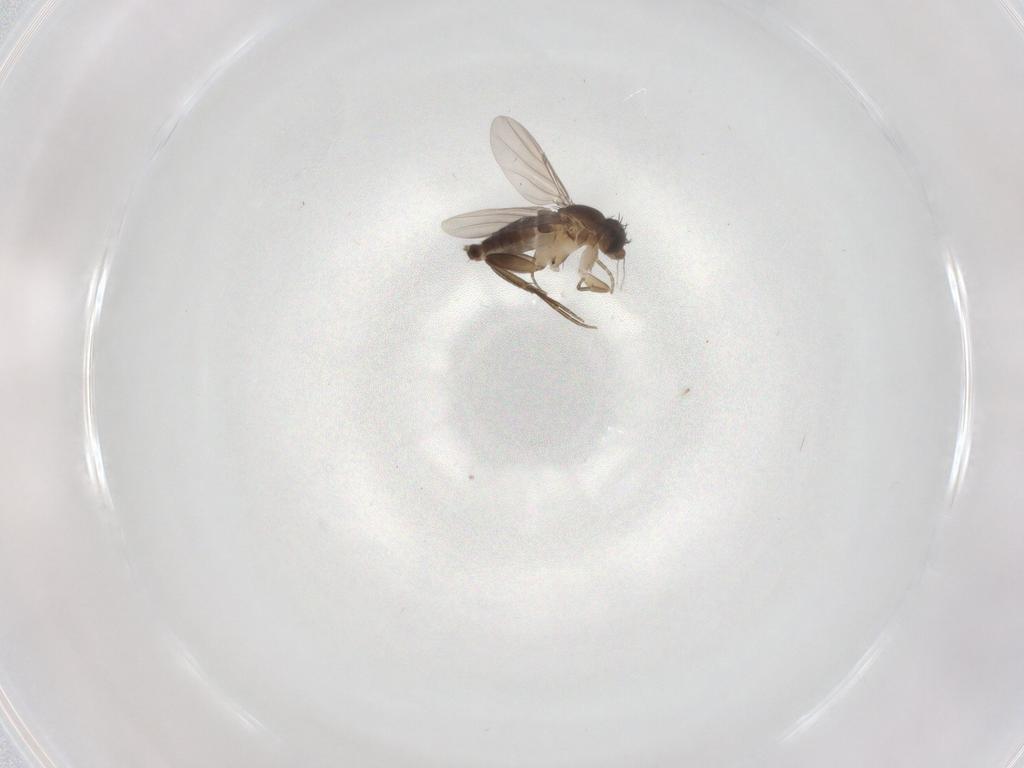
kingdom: Animalia
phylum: Arthropoda
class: Insecta
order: Diptera
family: Phoridae
